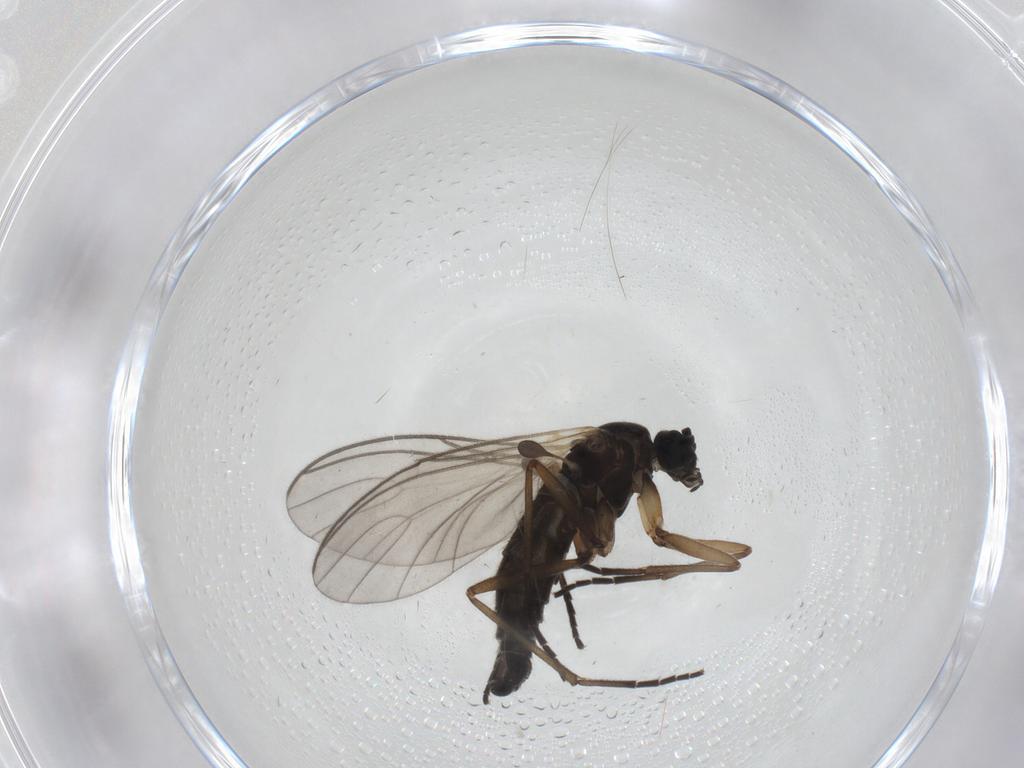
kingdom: Animalia
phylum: Arthropoda
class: Insecta
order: Diptera
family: Sciaridae
